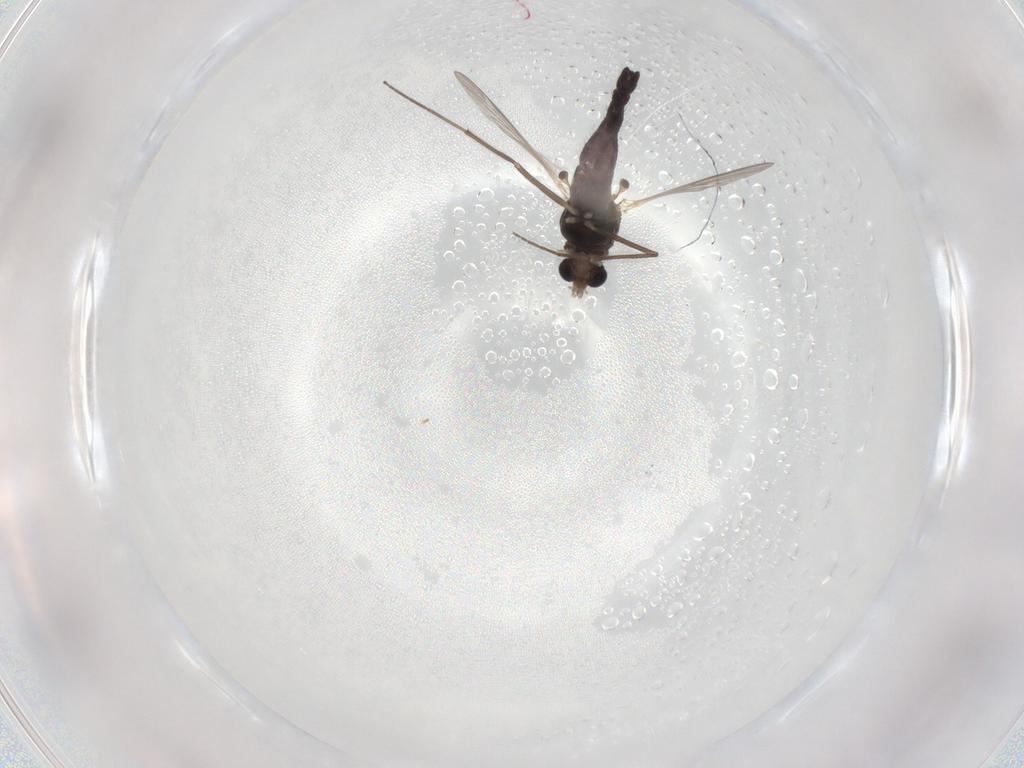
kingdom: Animalia
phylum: Arthropoda
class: Insecta
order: Diptera
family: Chironomidae
